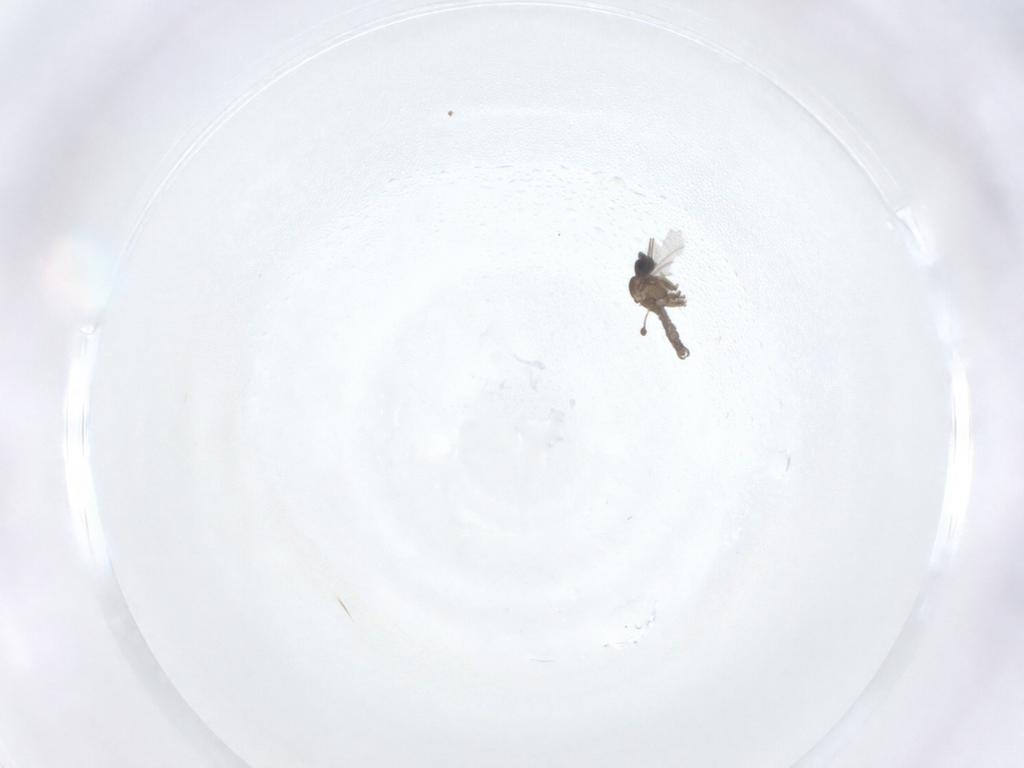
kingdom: Animalia
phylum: Arthropoda
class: Insecta
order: Diptera
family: Sciaridae
